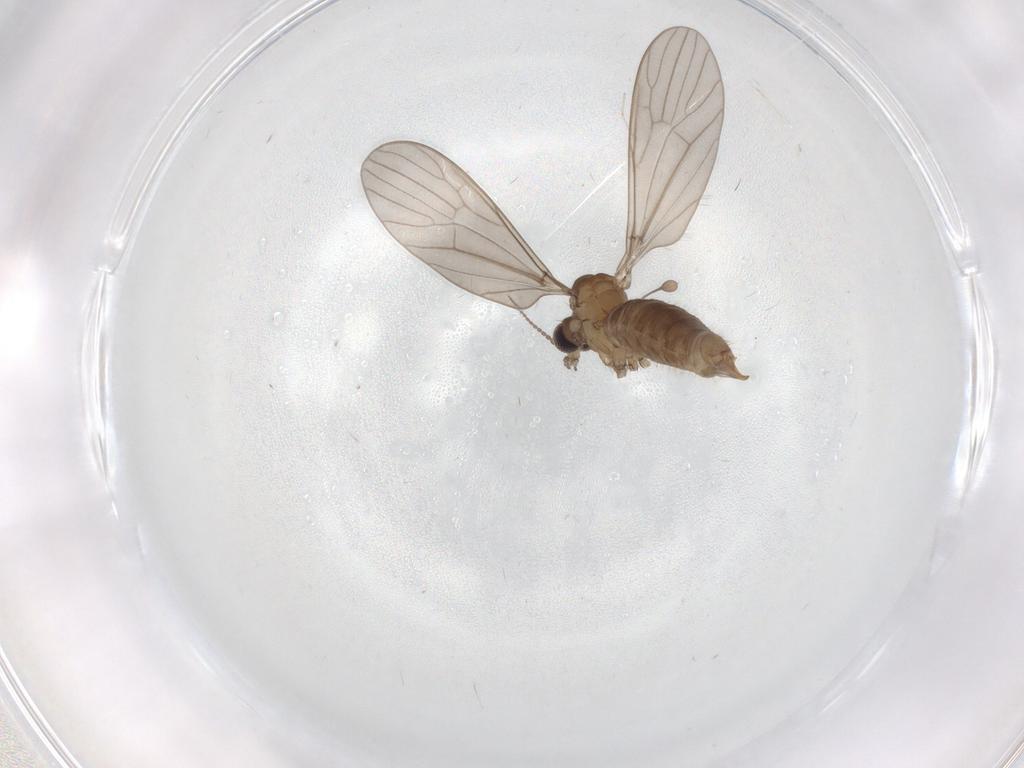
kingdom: Animalia
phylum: Arthropoda
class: Insecta
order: Diptera
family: Limoniidae
